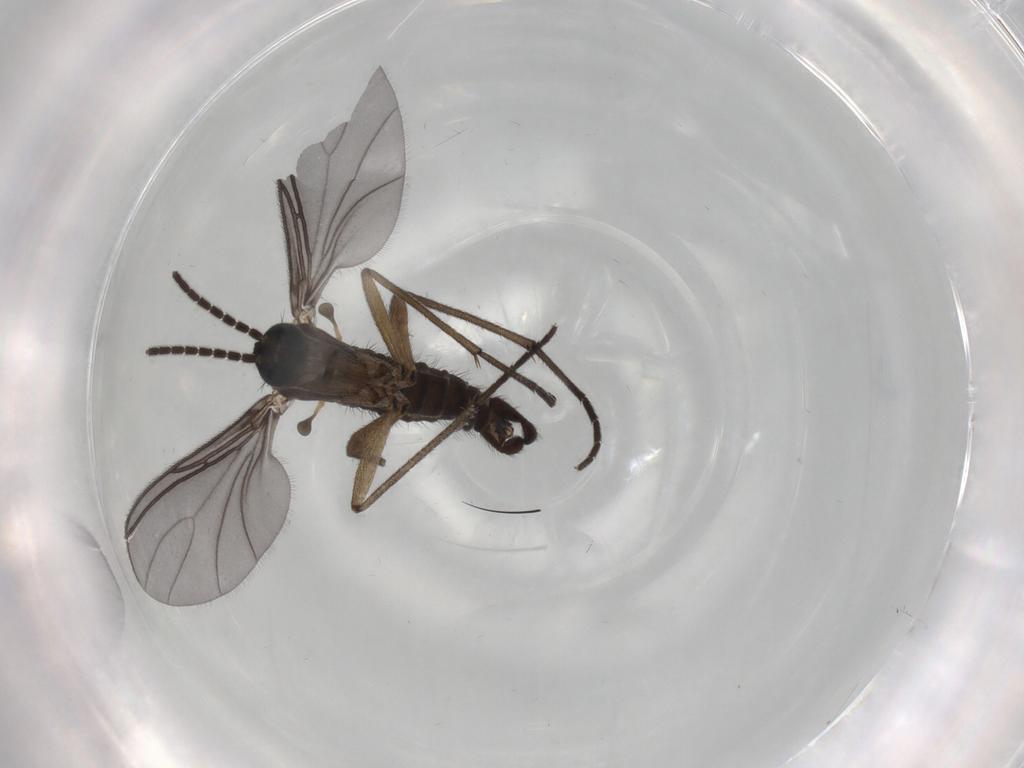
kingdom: Animalia
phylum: Arthropoda
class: Insecta
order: Diptera
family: Sciaridae
